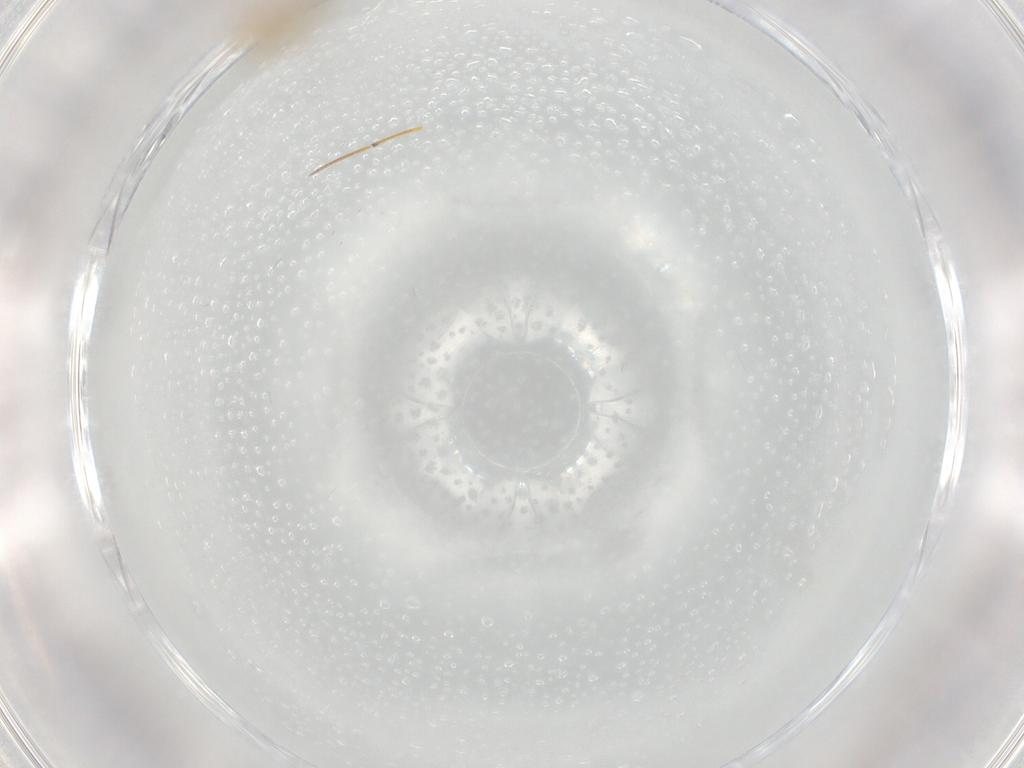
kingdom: Animalia
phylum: Arthropoda
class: Insecta
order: Diptera
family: Chironomidae
